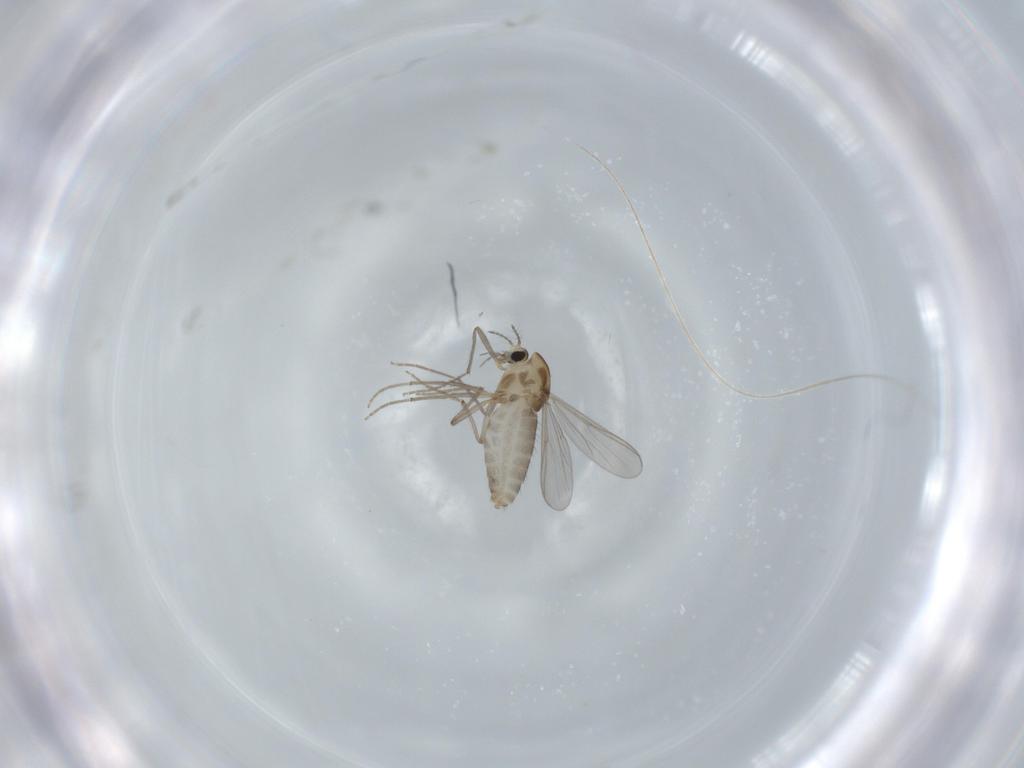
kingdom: Animalia
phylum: Arthropoda
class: Insecta
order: Diptera
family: Chironomidae
